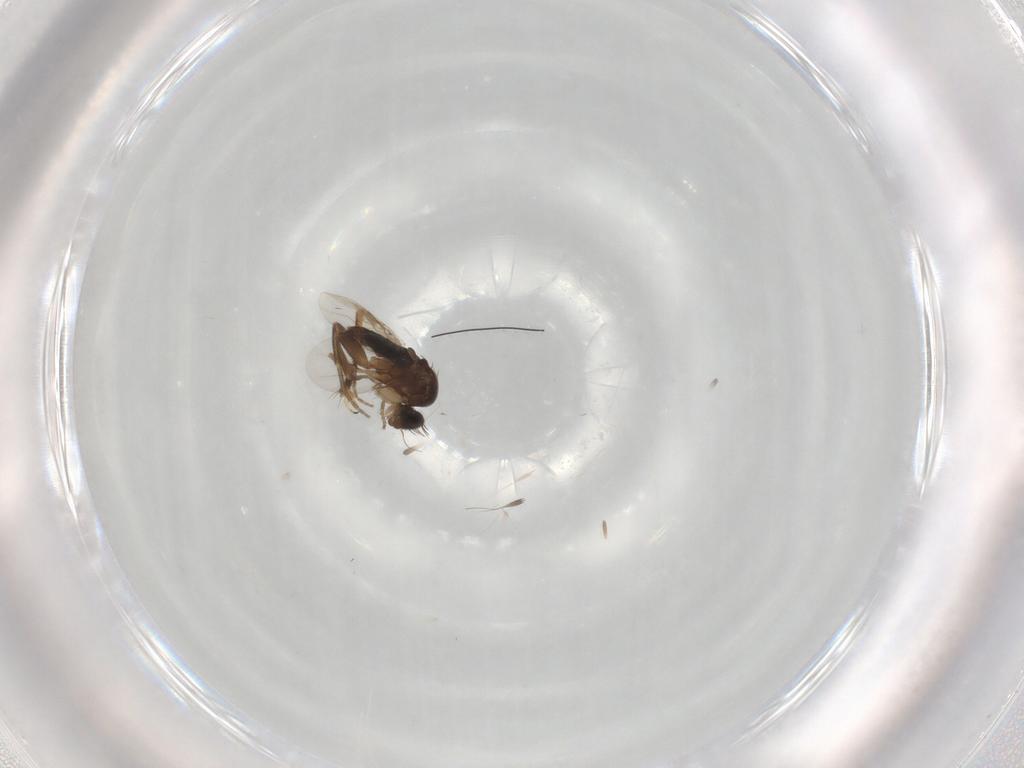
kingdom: Animalia
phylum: Arthropoda
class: Insecta
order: Diptera
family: Phoridae
